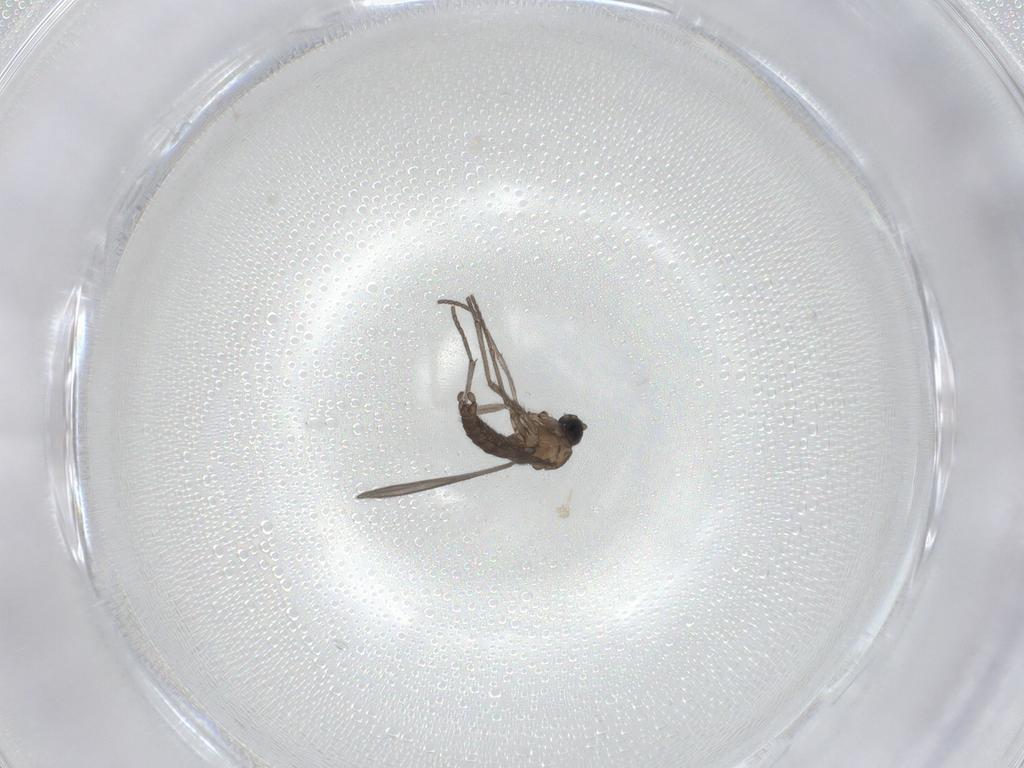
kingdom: Animalia
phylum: Arthropoda
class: Insecta
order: Diptera
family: Sciaridae
